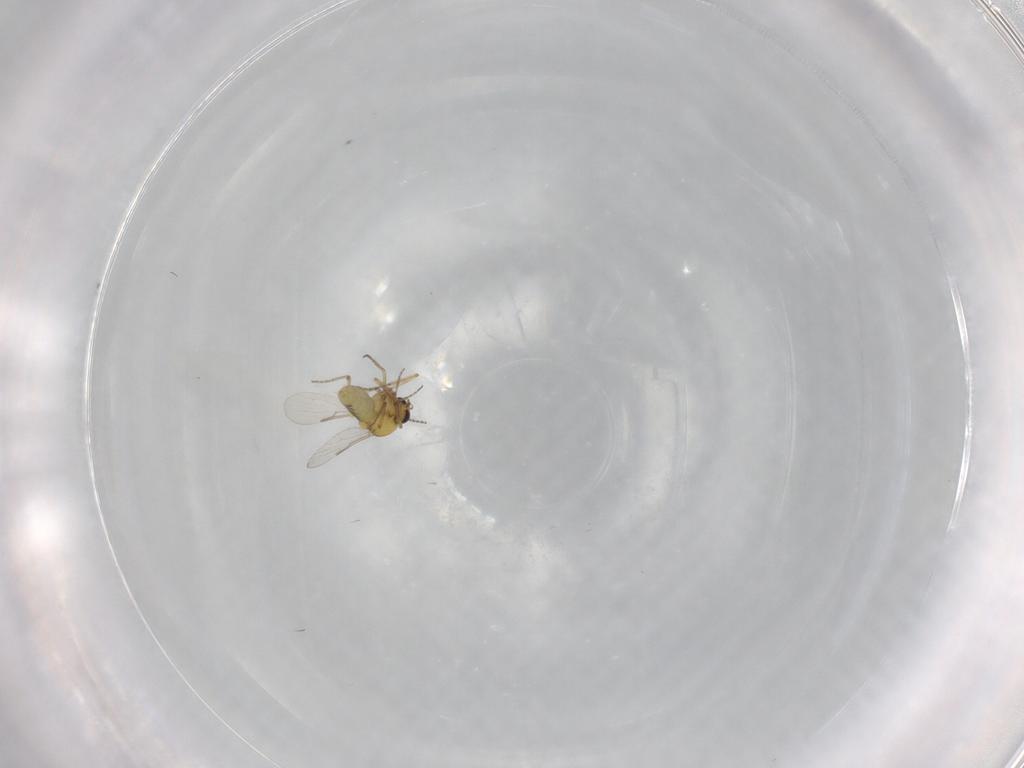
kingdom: Animalia
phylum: Arthropoda
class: Insecta
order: Diptera
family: Ceratopogonidae
